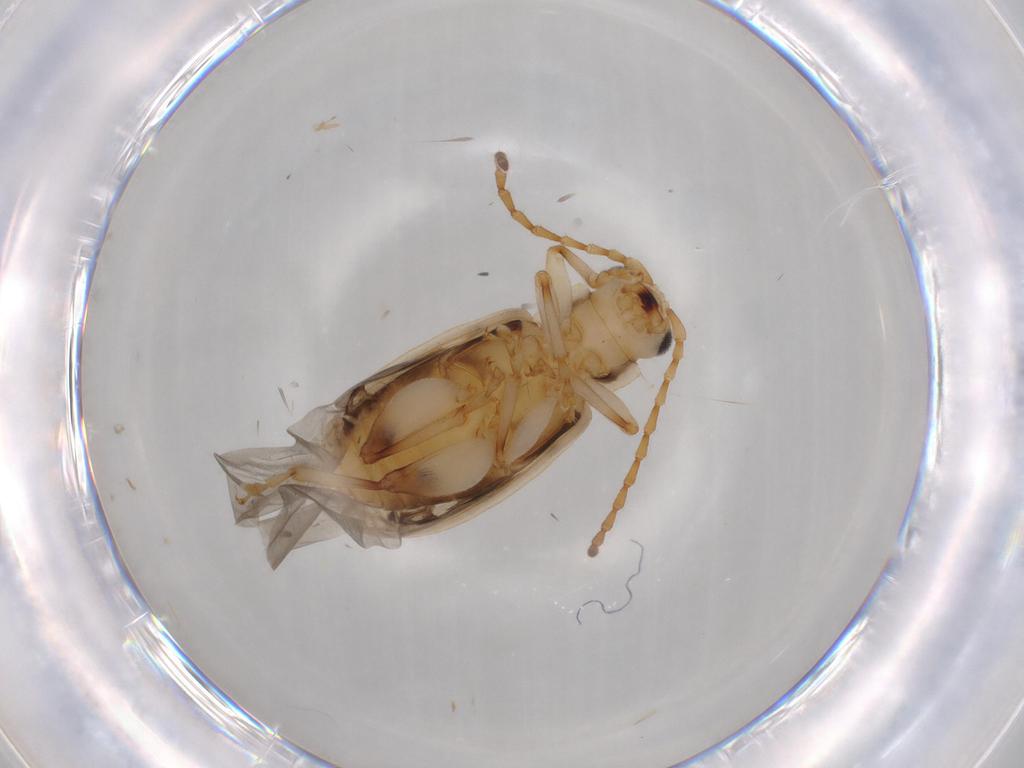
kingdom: Animalia
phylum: Arthropoda
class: Insecta
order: Coleoptera
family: Chrysomelidae
